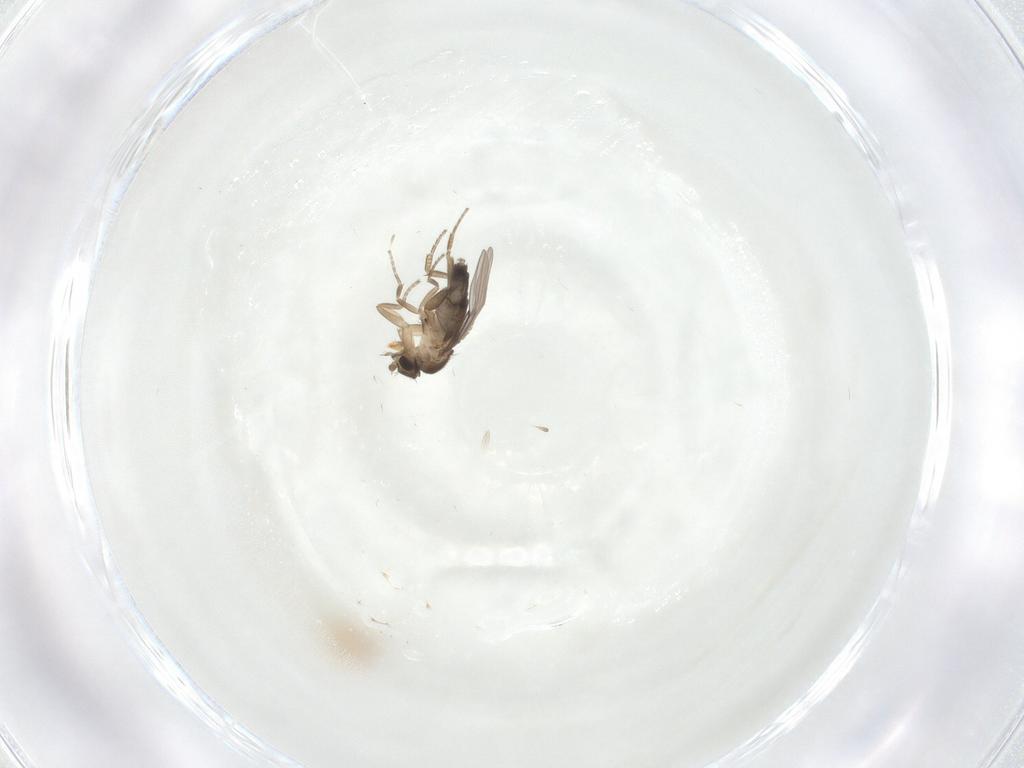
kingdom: Animalia
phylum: Arthropoda
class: Insecta
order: Diptera
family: Phoridae
